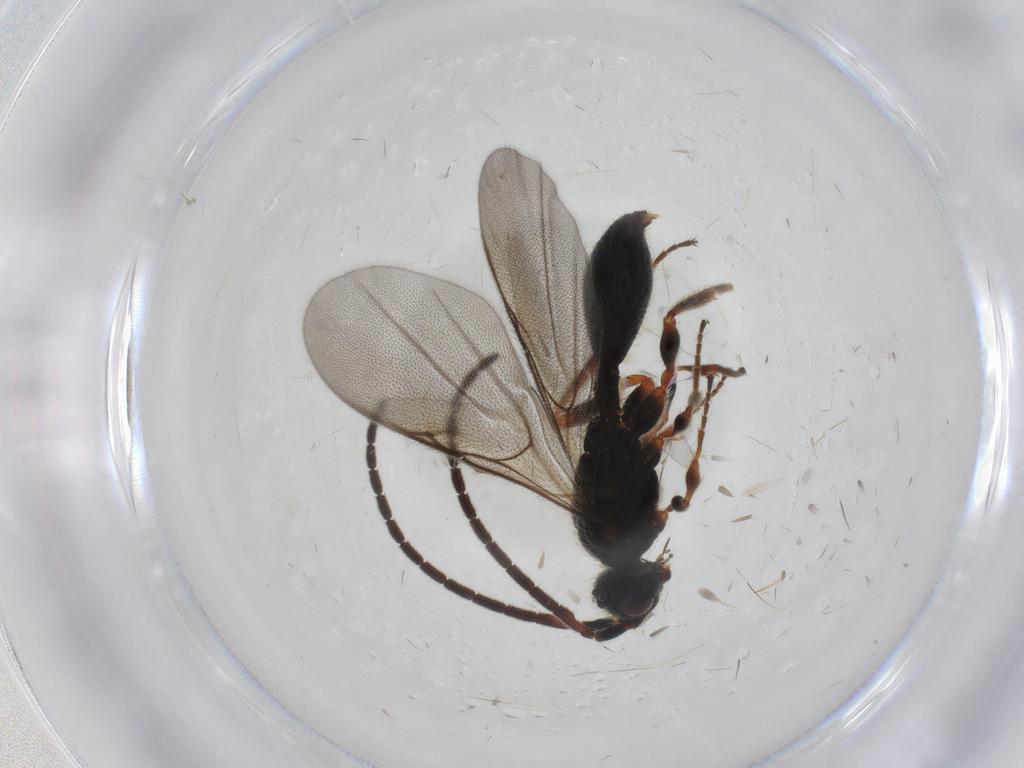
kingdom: Animalia
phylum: Arthropoda
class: Insecta
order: Hymenoptera
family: Diapriidae
